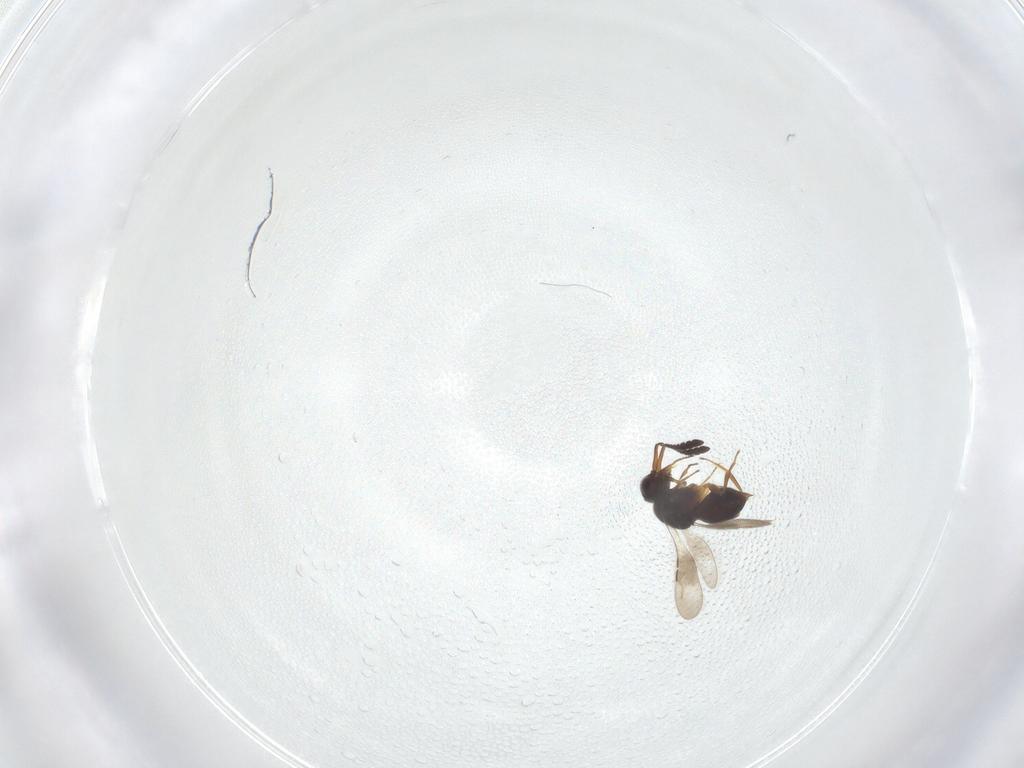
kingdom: Animalia
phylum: Arthropoda
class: Insecta
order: Hymenoptera
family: Ceraphronidae
